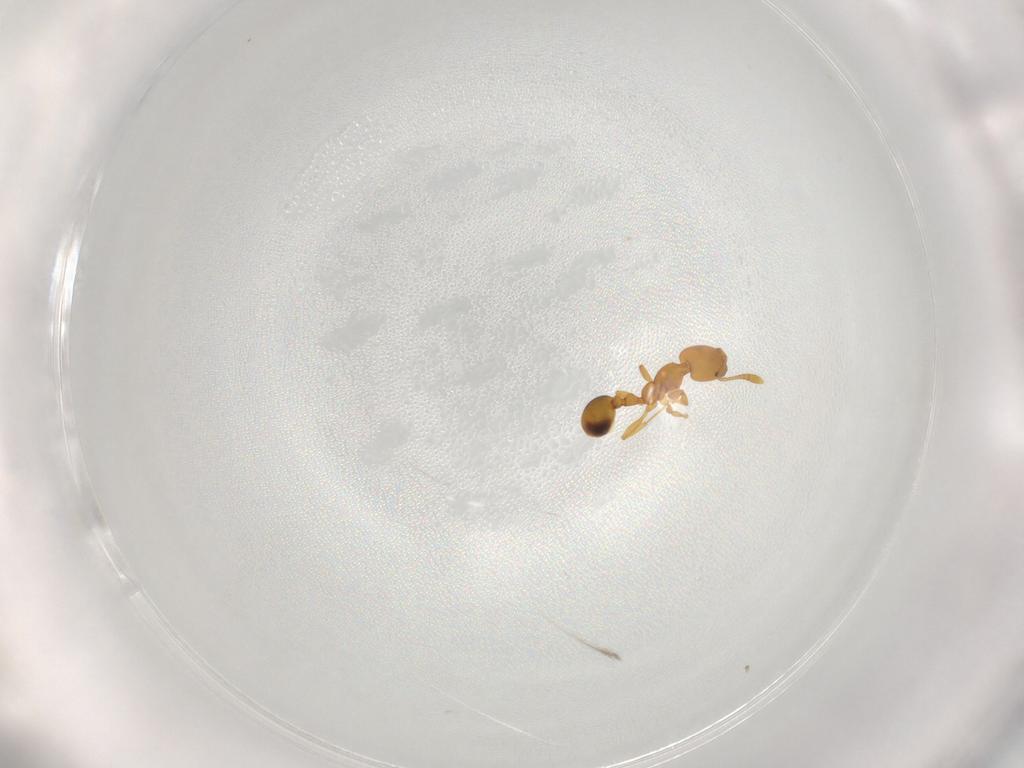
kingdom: Animalia
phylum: Arthropoda
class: Insecta
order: Hymenoptera
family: Formicidae
